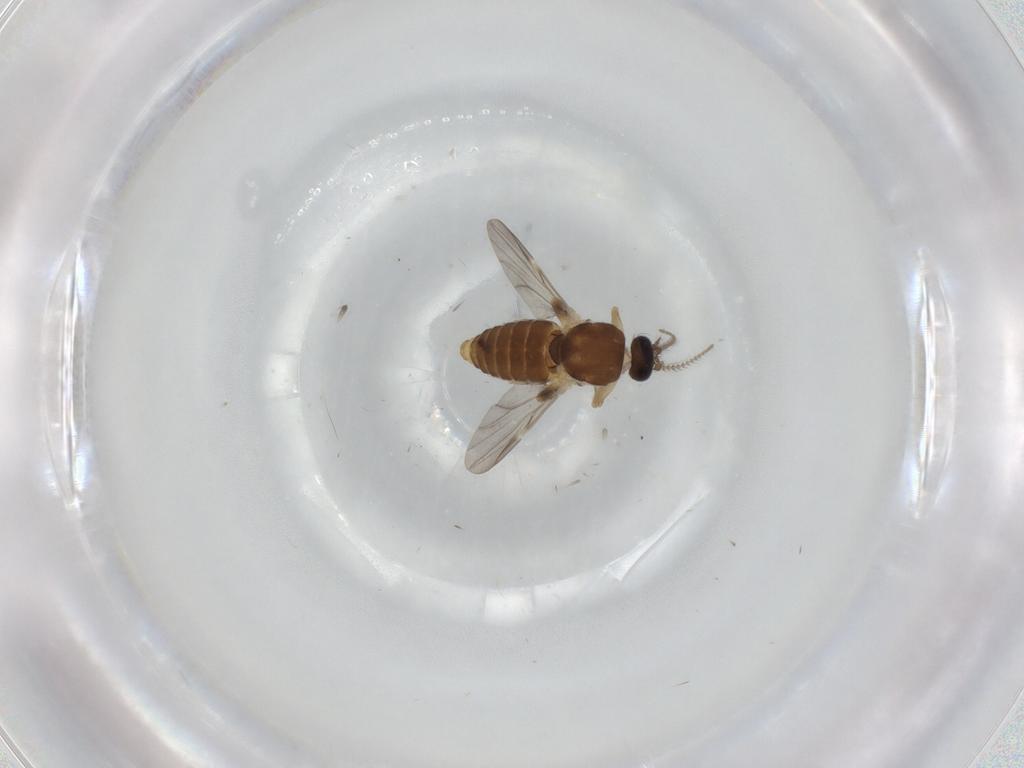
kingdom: Animalia
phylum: Arthropoda
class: Insecta
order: Diptera
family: Ceratopogonidae
